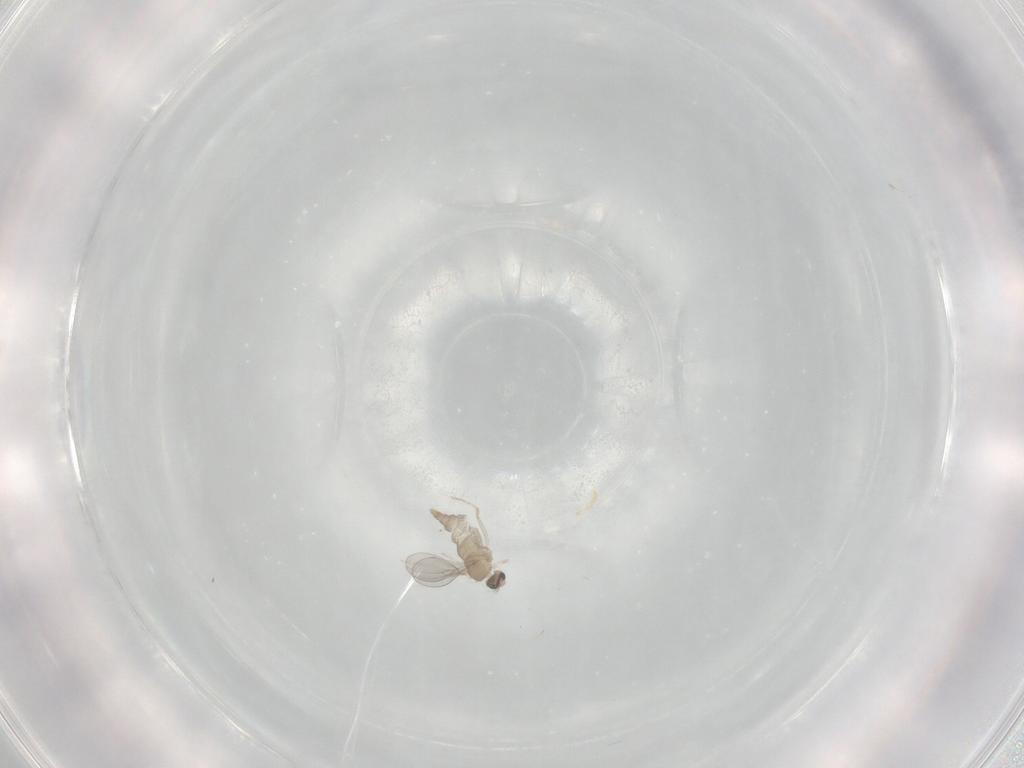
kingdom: Animalia
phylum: Arthropoda
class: Insecta
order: Diptera
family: Cecidomyiidae
